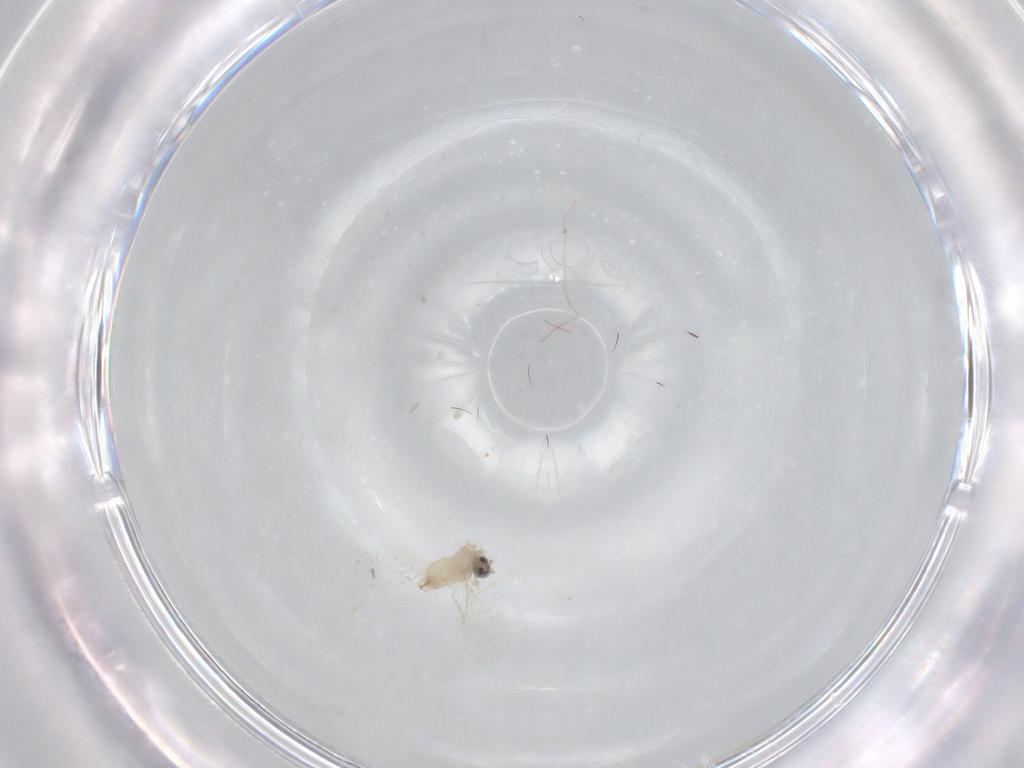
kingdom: Animalia
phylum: Arthropoda
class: Insecta
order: Diptera
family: Cecidomyiidae
